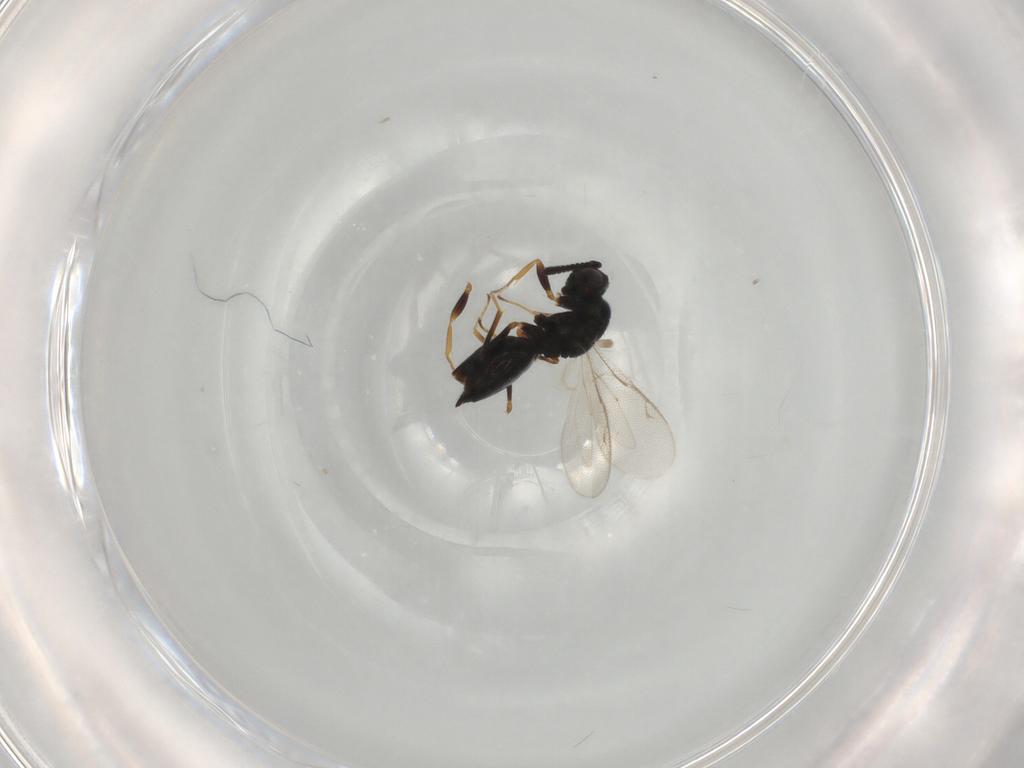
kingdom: Animalia
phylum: Arthropoda
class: Insecta
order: Hymenoptera
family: Pteromalidae
